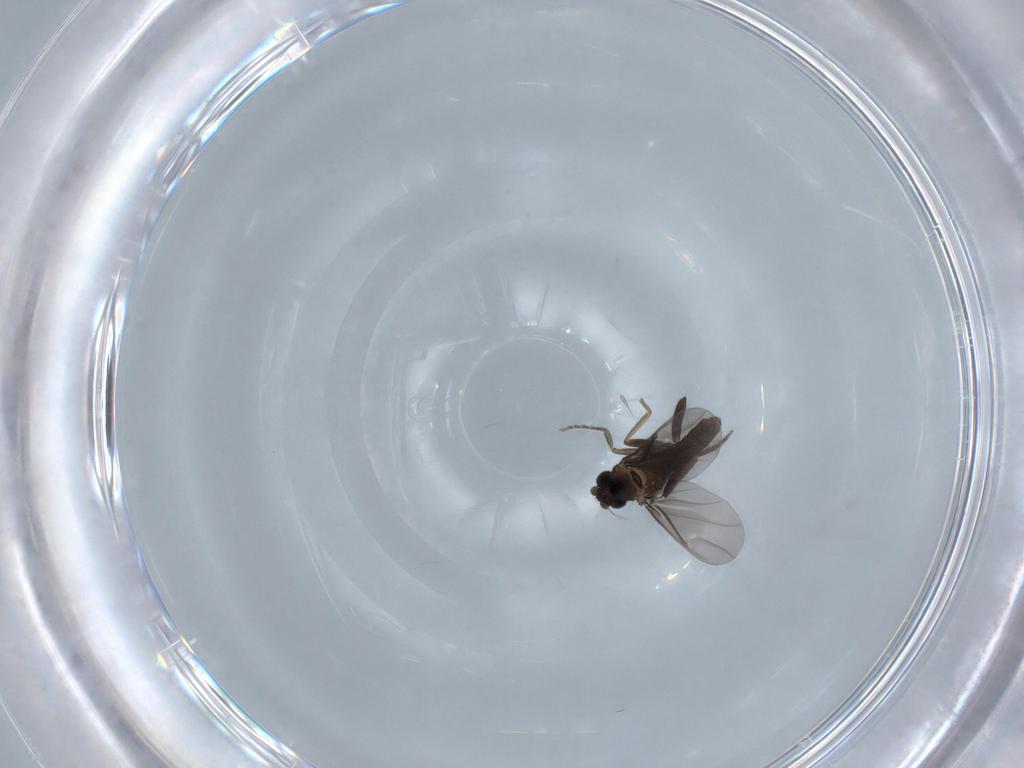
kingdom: Animalia
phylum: Arthropoda
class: Insecta
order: Diptera
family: Phoridae
